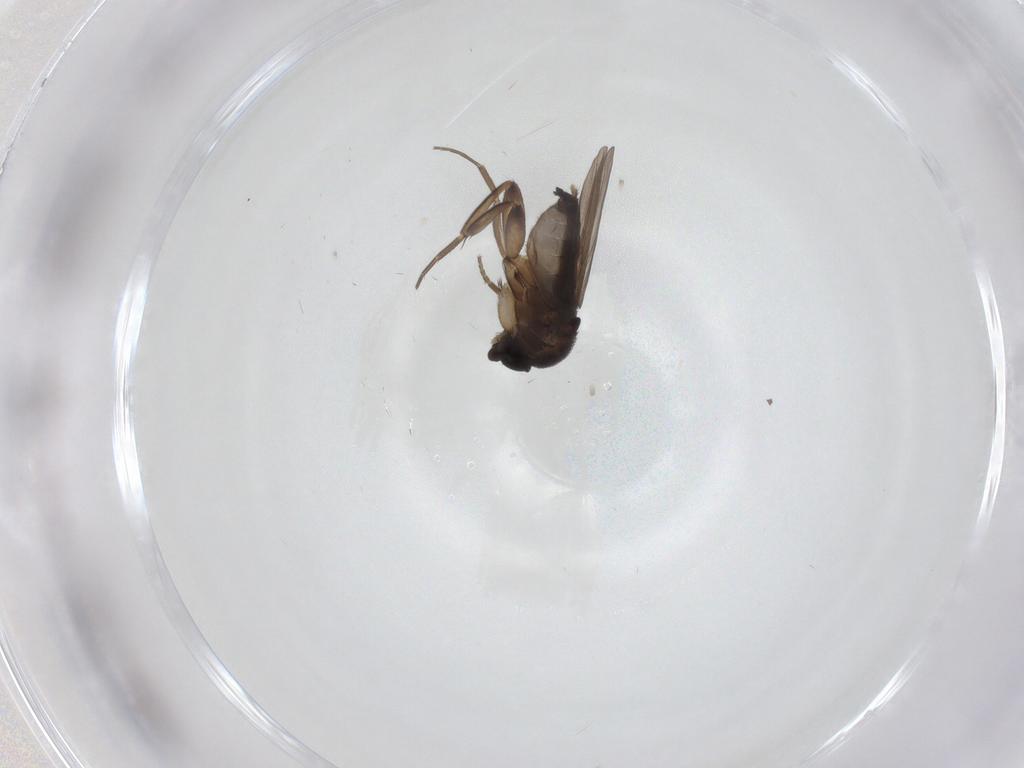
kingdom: Animalia
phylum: Arthropoda
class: Insecta
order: Diptera
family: Phoridae
